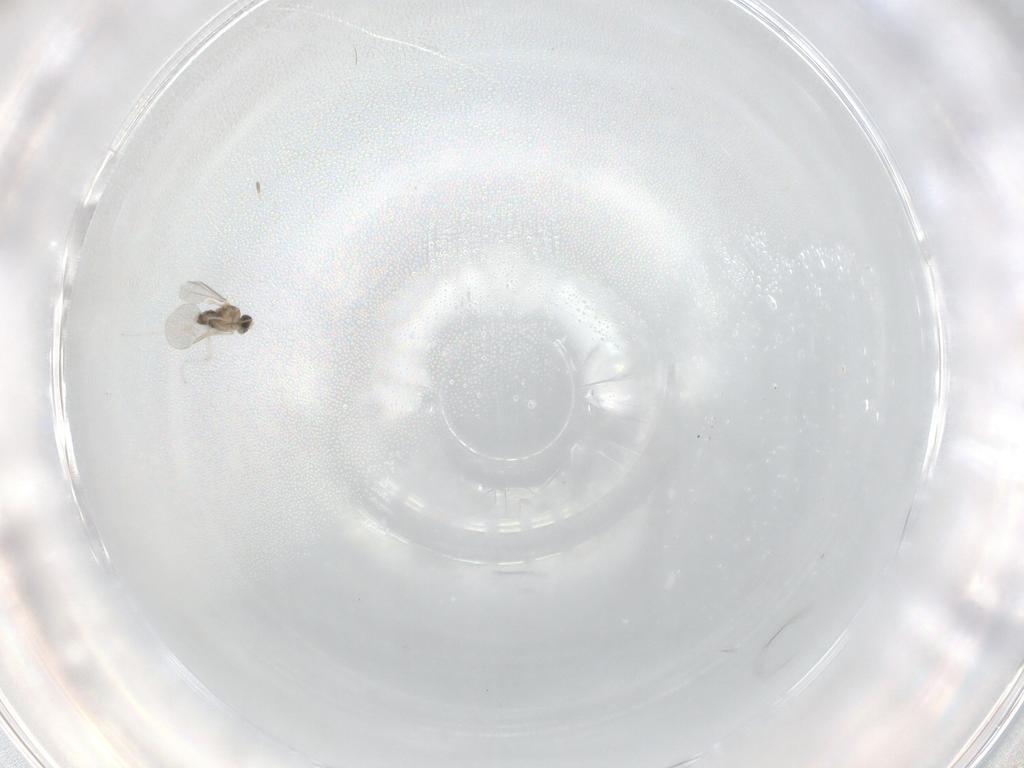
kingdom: Animalia
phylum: Arthropoda
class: Insecta
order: Diptera
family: Drosophilidae
